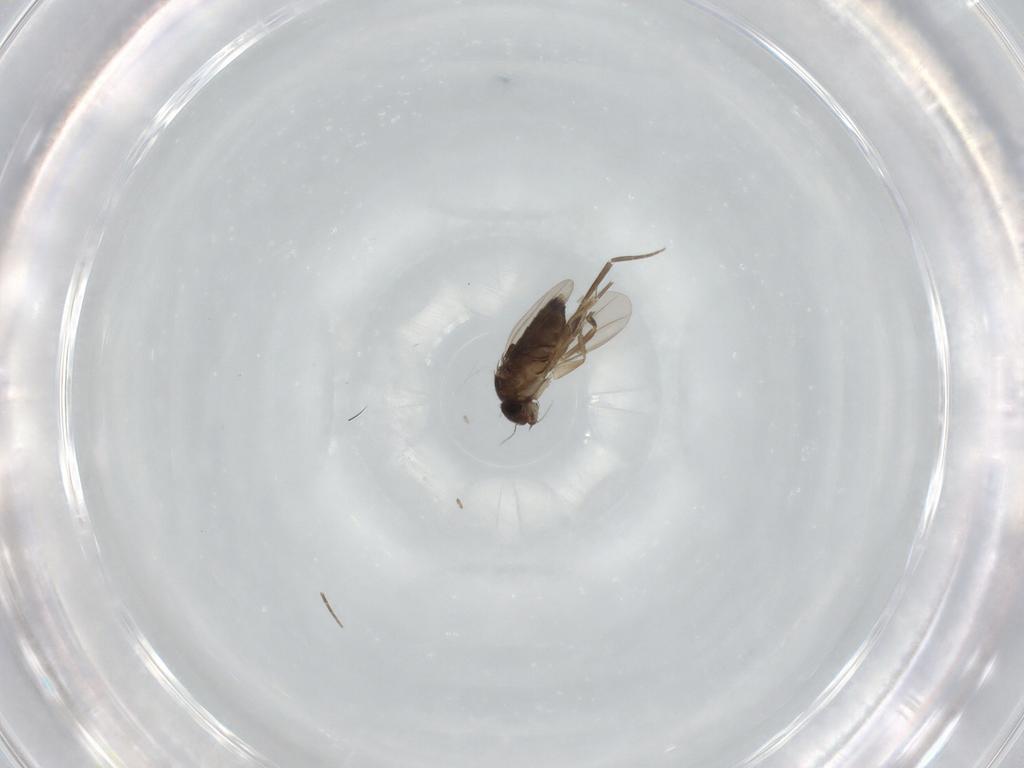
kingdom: Animalia
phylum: Arthropoda
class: Insecta
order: Diptera
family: Phoridae
